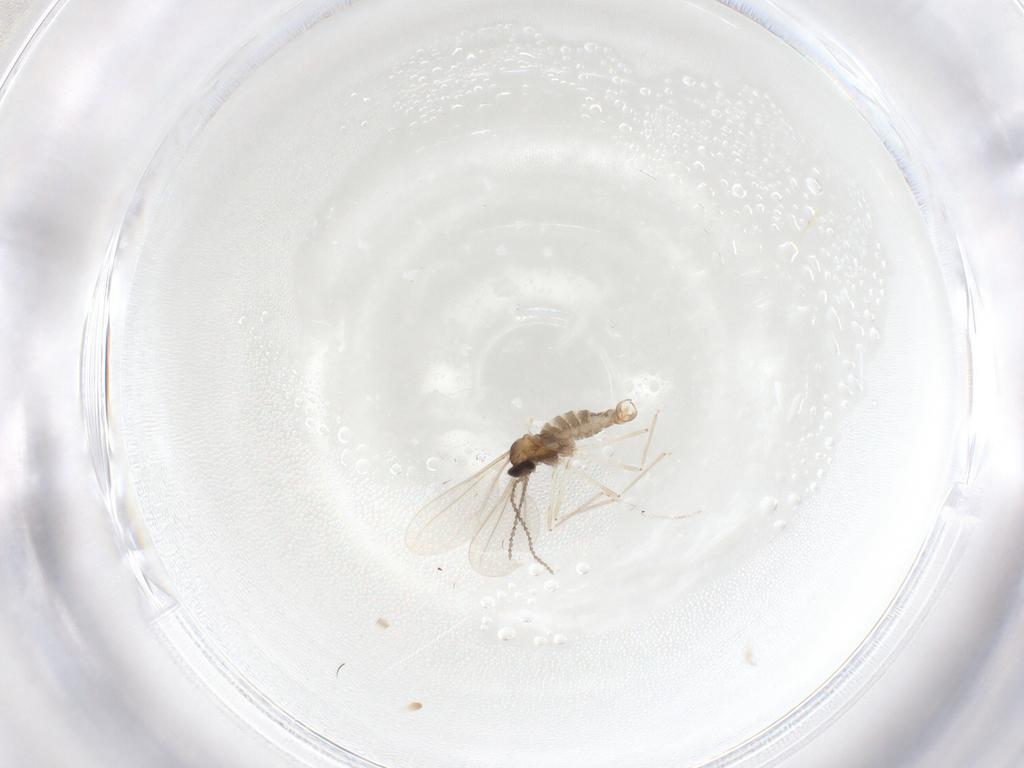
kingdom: Animalia
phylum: Arthropoda
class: Insecta
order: Diptera
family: Cecidomyiidae
